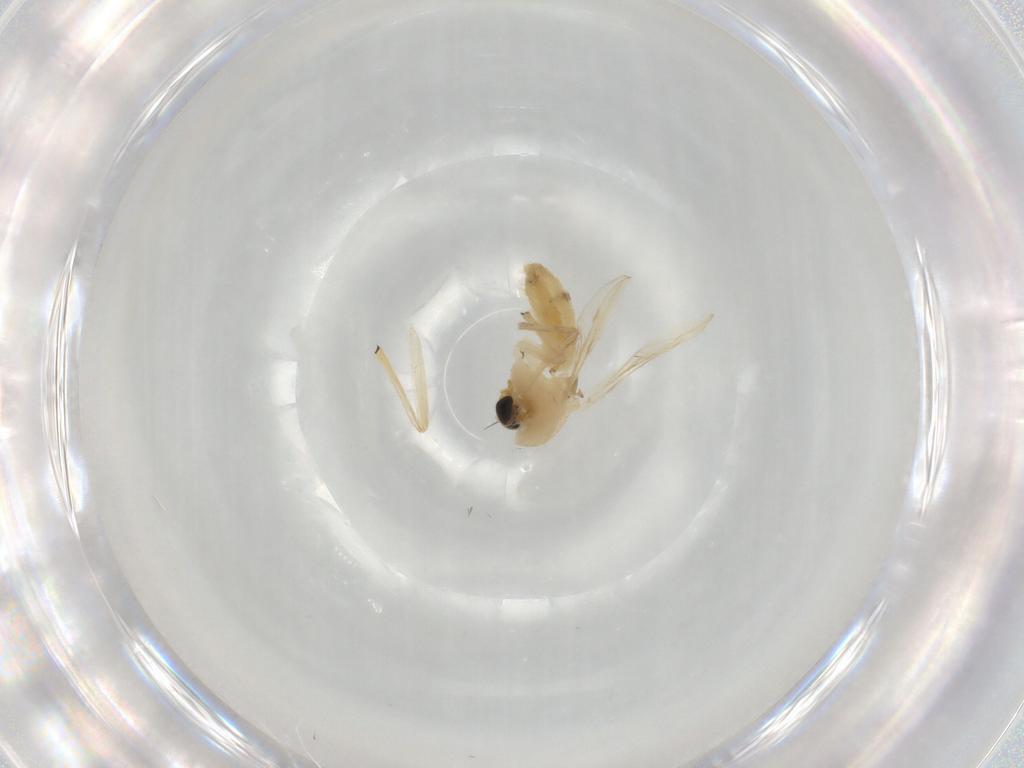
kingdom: Animalia
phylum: Arthropoda
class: Insecta
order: Diptera
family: Chironomidae
